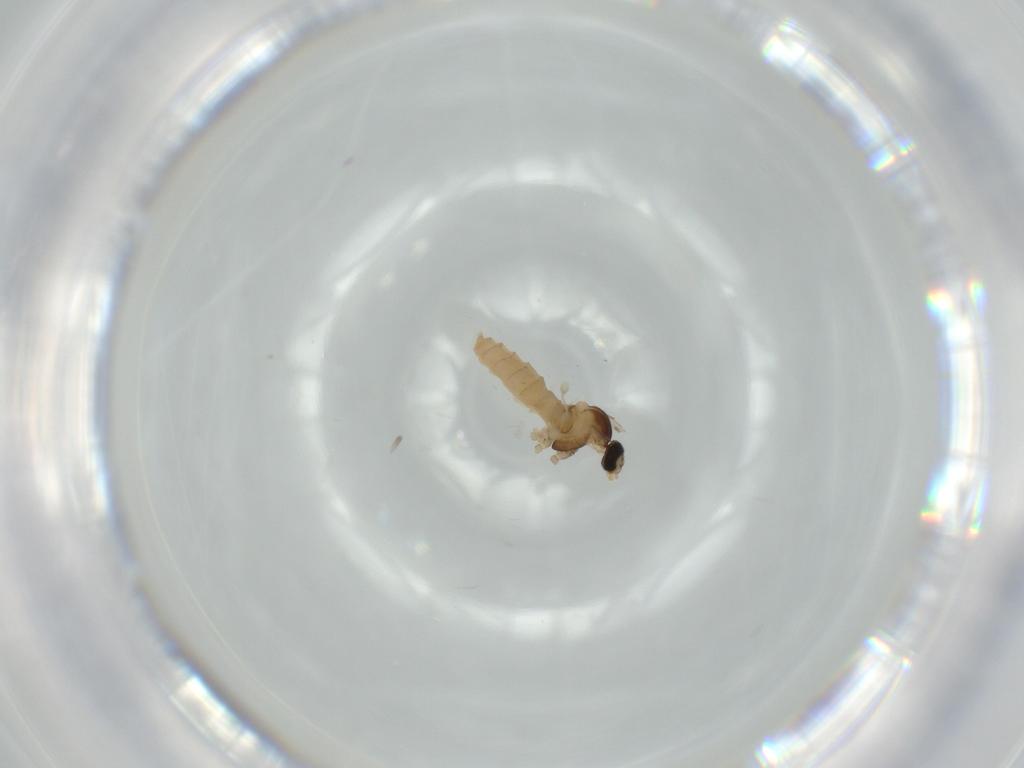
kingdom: Animalia
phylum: Arthropoda
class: Insecta
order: Diptera
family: Cecidomyiidae
